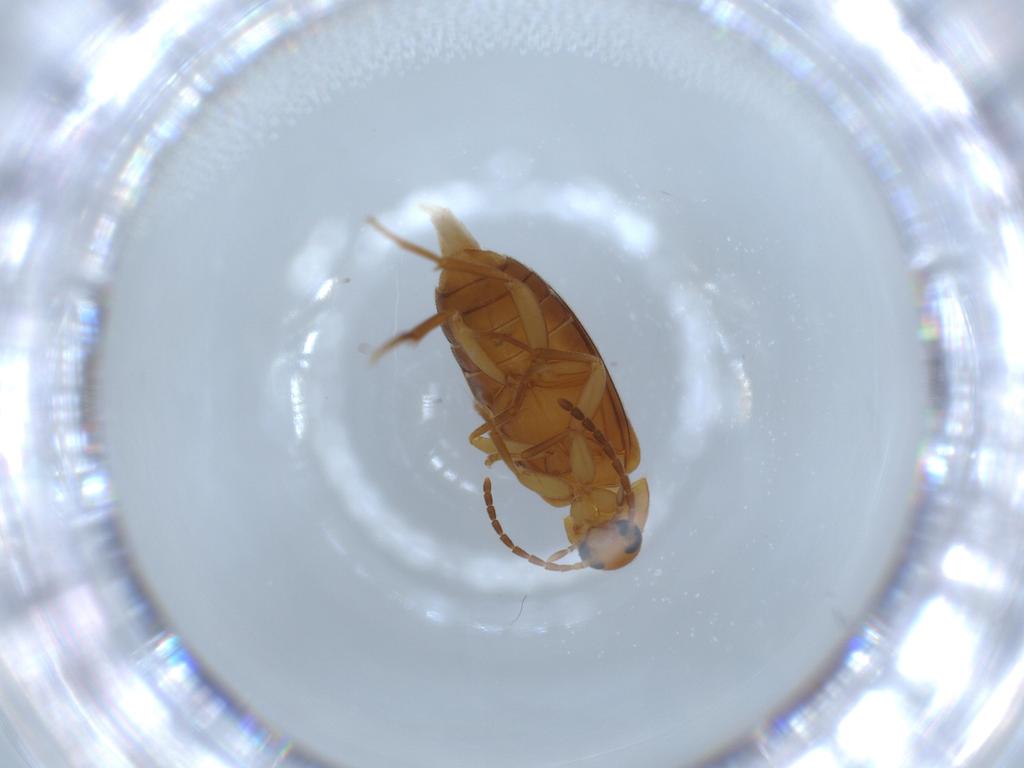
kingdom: Animalia
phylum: Arthropoda
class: Insecta
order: Coleoptera
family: Scraptiidae
